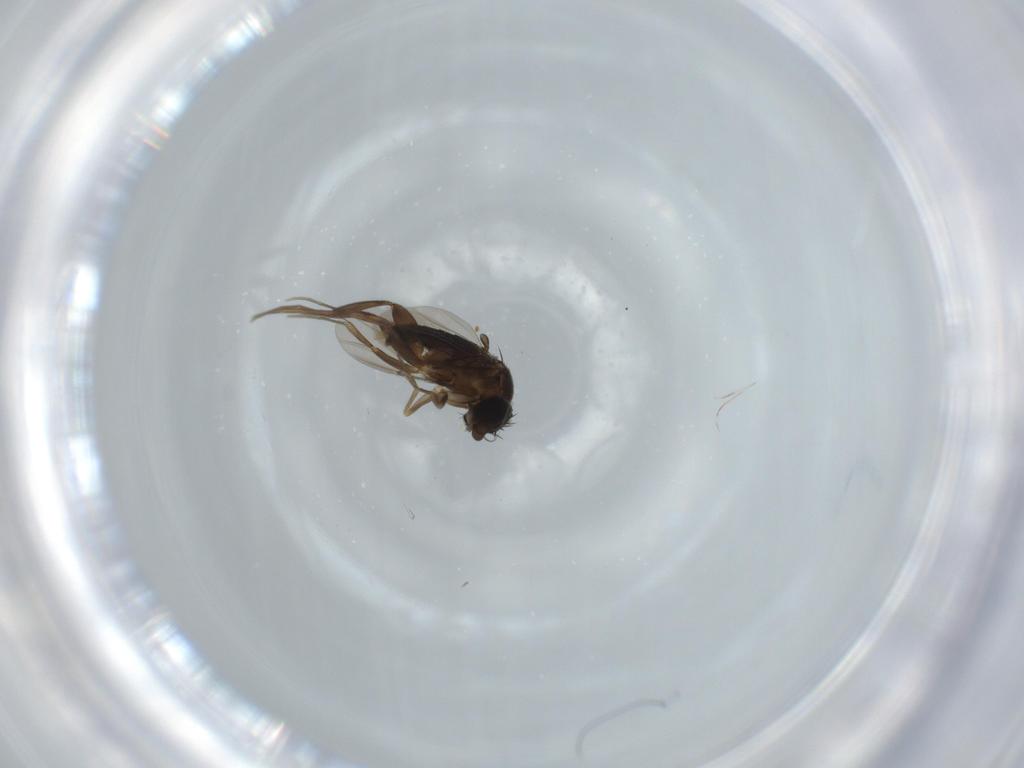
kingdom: Animalia
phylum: Arthropoda
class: Insecta
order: Diptera
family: Phoridae
